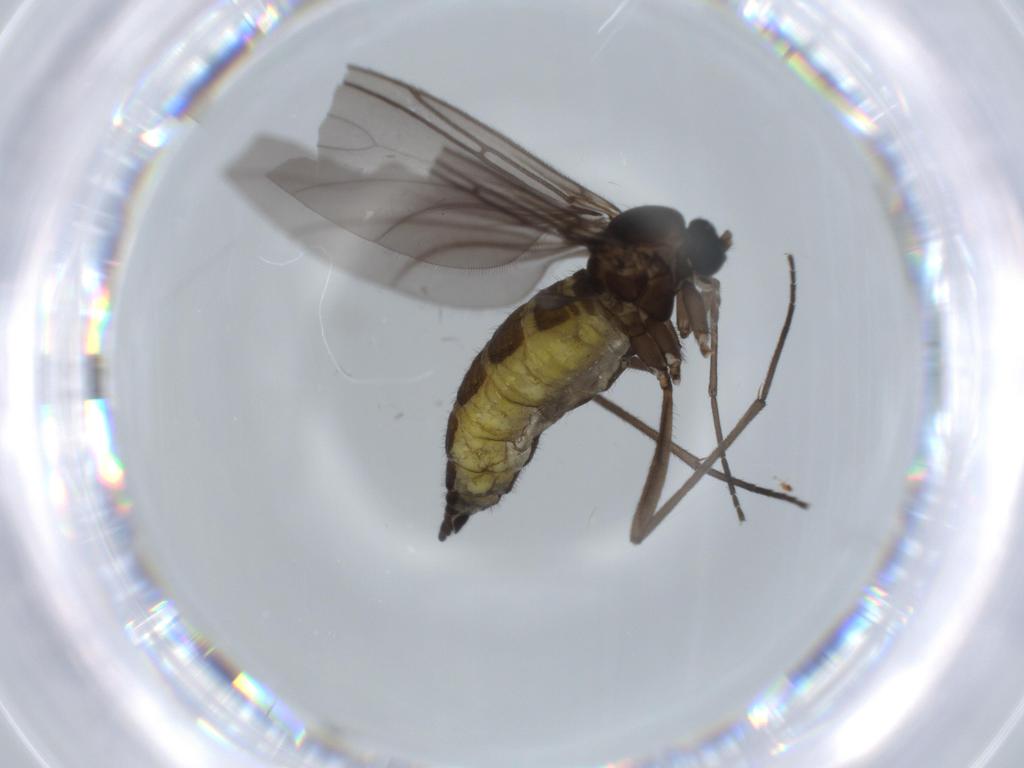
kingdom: Animalia
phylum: Arthropoda
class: Insecta
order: Diptera
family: Sciaridae
